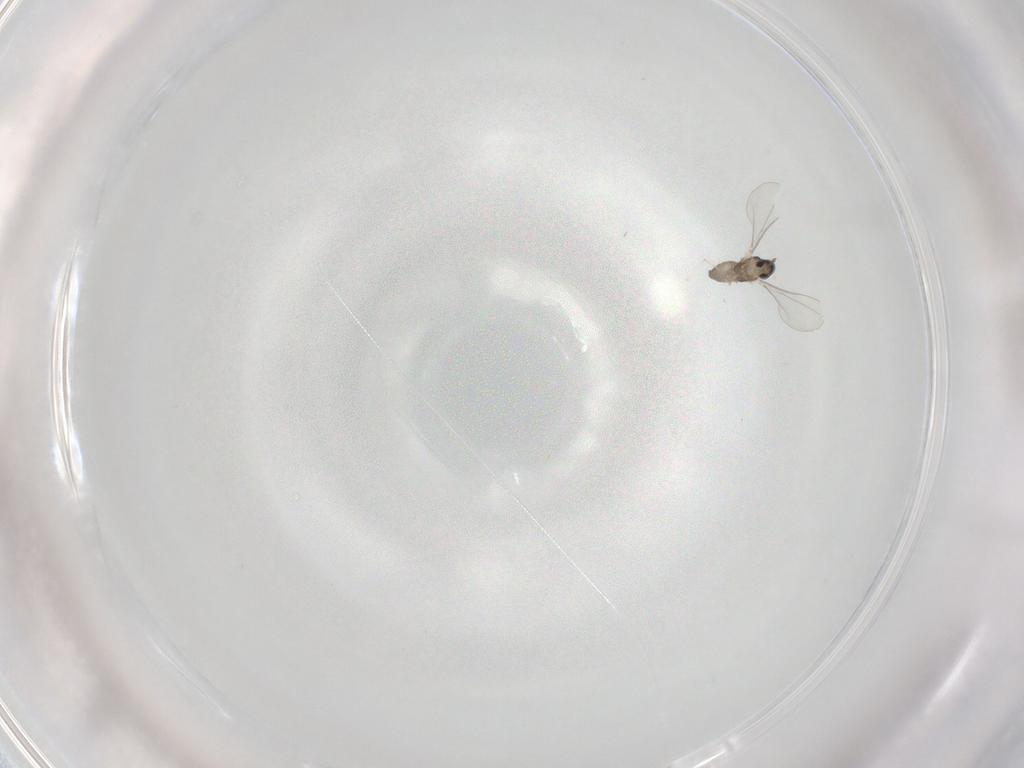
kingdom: Animalia
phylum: Arthropoda
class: Insecta
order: Diptera
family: Cecidomyiidae
